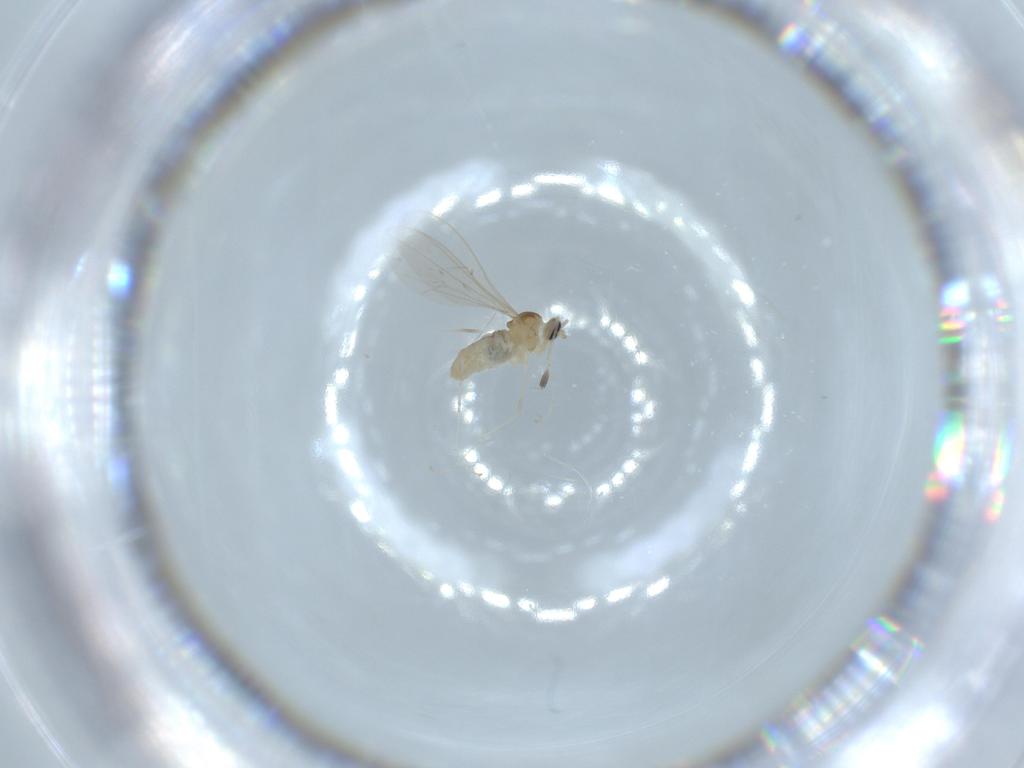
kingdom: Animalia
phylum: Arthropoda
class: Insecta
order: Diptera
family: Cecidomyiidae
